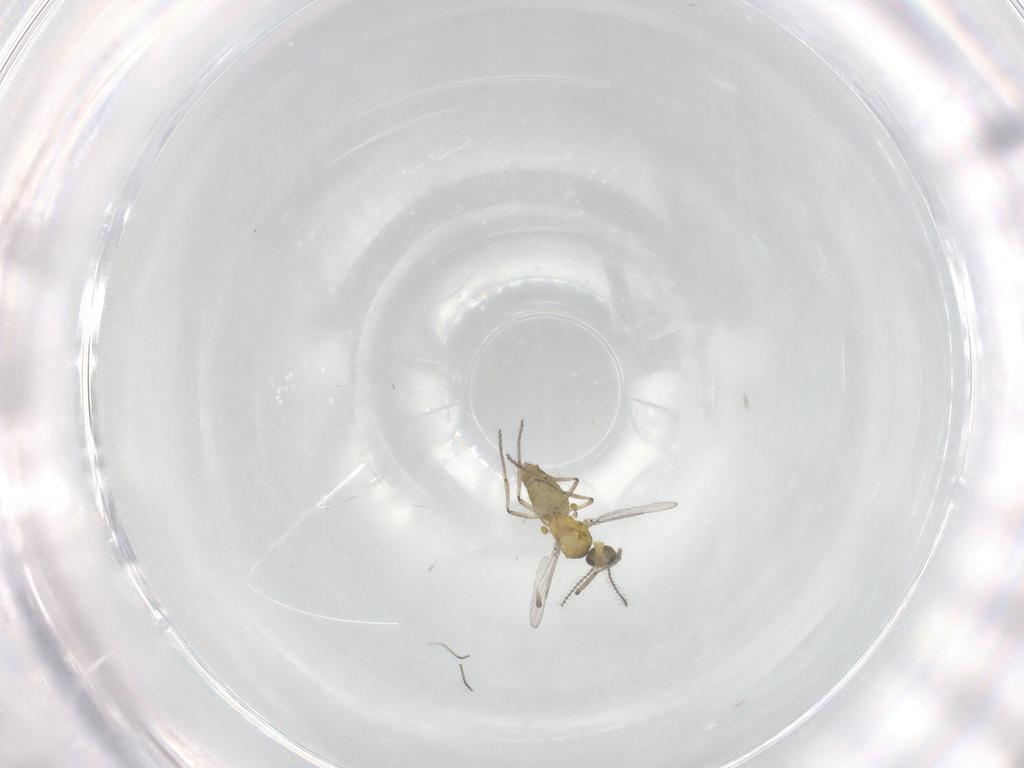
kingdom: Animalia
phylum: Arthropoda
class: Insecta
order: Diptera
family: Ceratopogonidae
